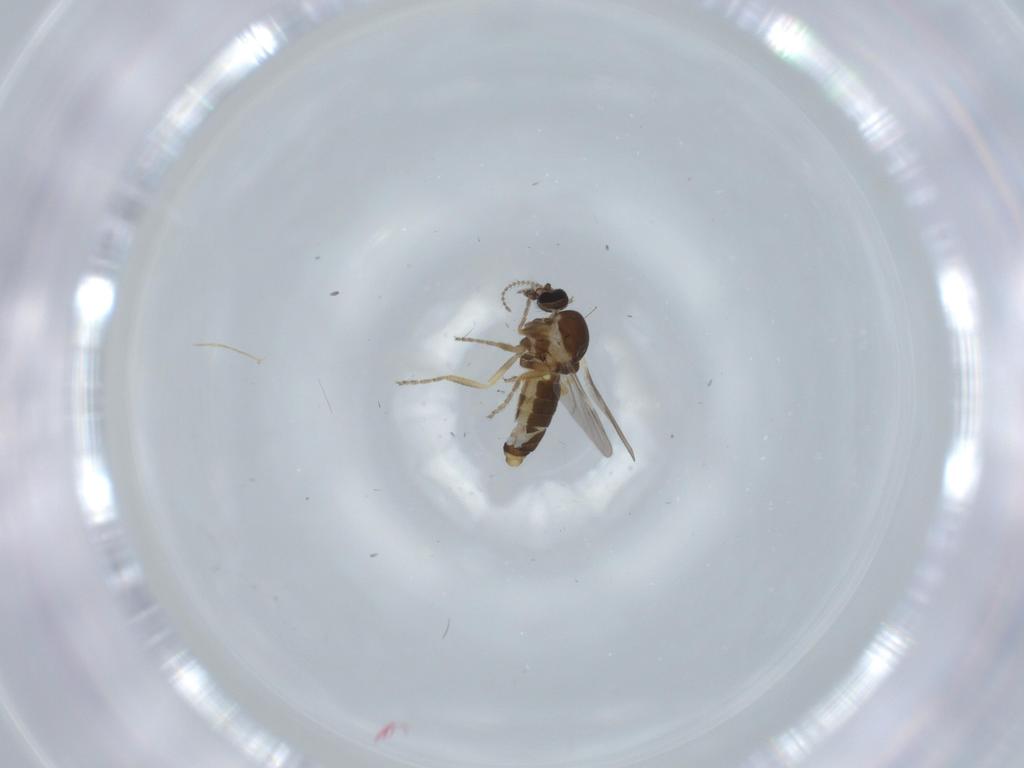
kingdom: Animalia
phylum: Arthropoda
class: Insecta
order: Diptera
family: Ceratopogonidae
